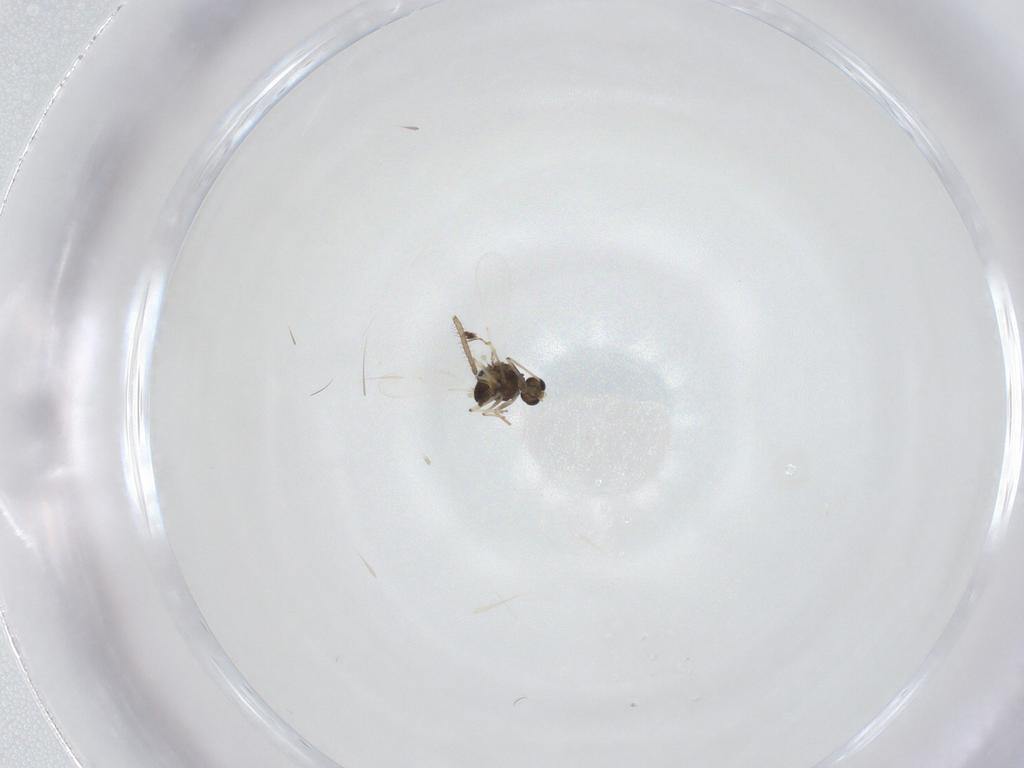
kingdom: Animalia
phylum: Arthropoda
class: Insecta
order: Diptera
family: Chironomidae
